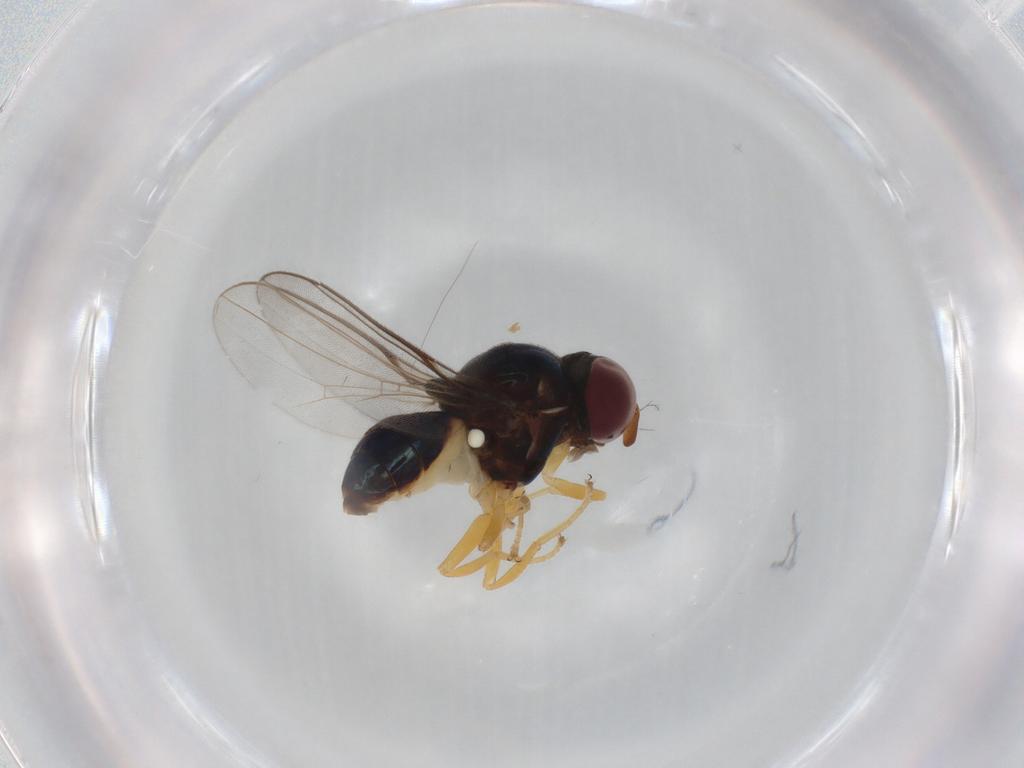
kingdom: Animalia
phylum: Arthropoda
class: Insecta
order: Diptera
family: Chloropidae
